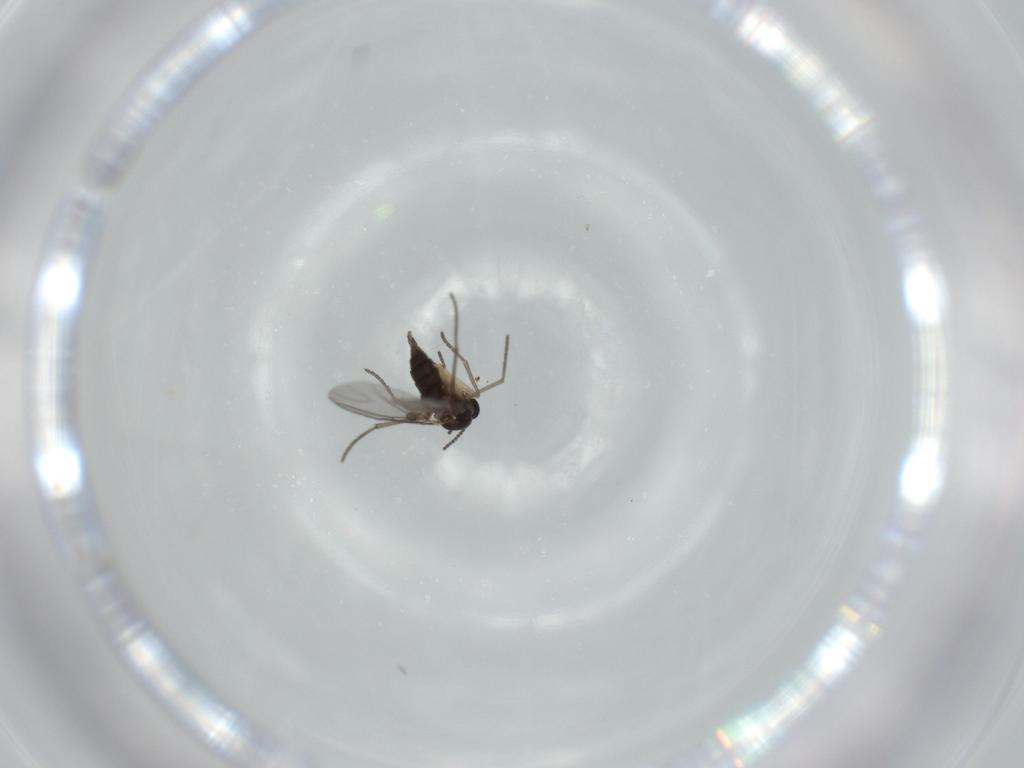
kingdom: Animalia
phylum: Arthropoda
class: Insecta
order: Diptera
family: Sciaridae
